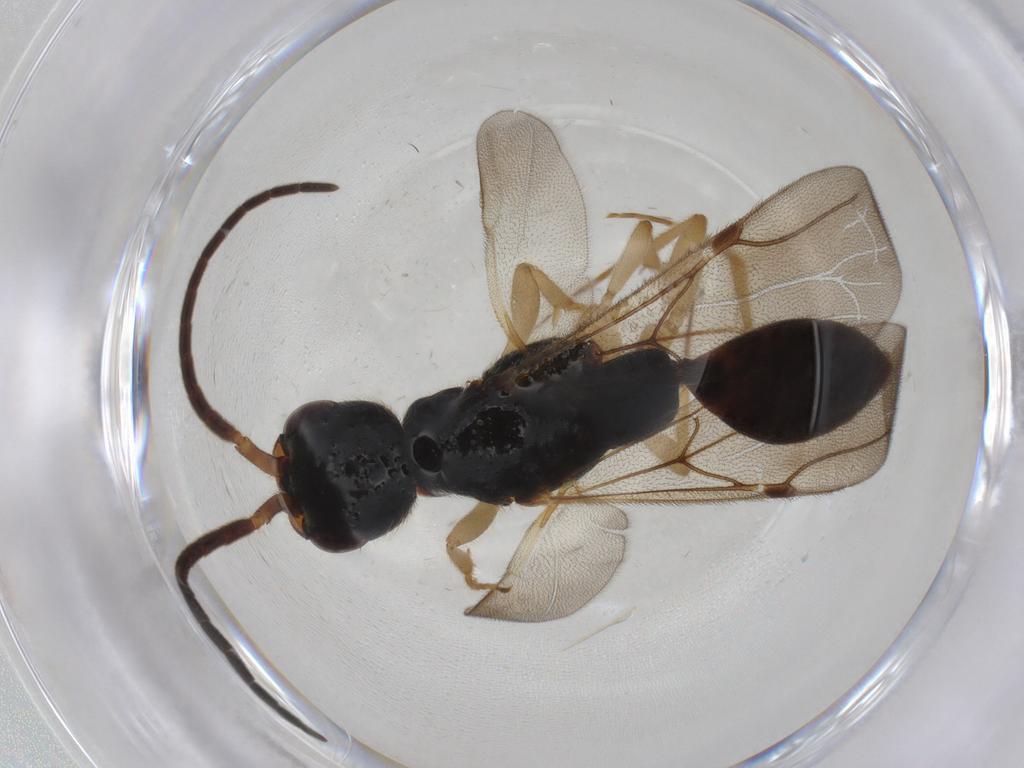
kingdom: Animalia
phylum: Arthropoda
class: Insecta
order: Hymenoptera
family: Bethylidae
